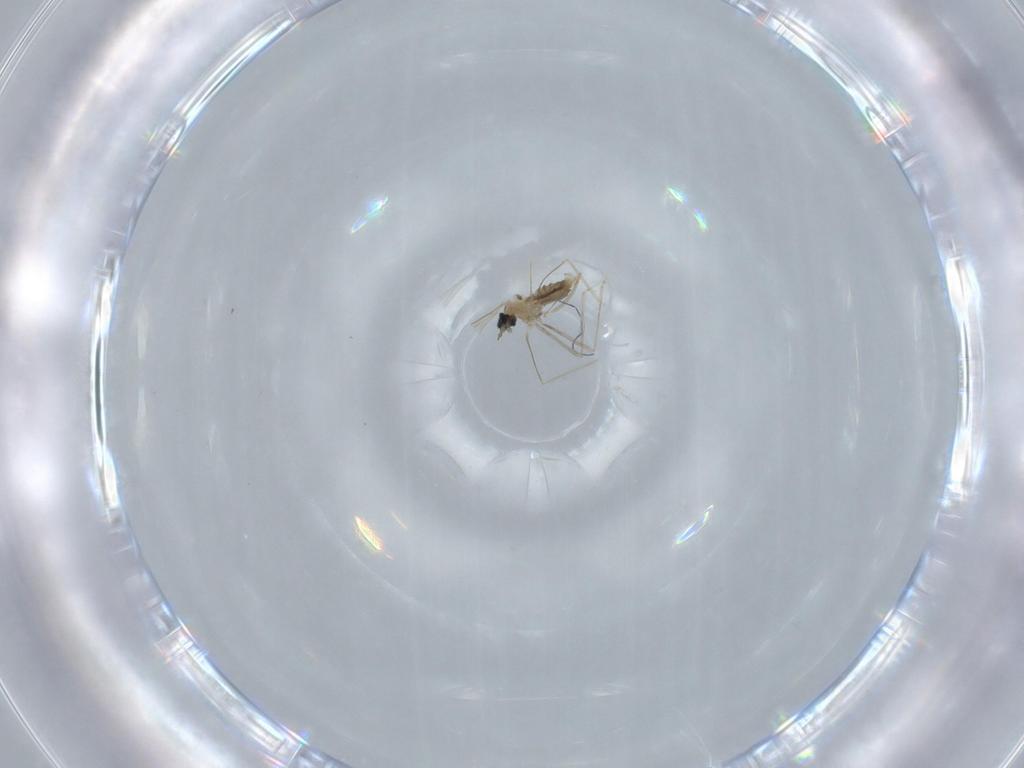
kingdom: Animalia
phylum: Arthropoda
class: Insecta
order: Diptera
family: Cecidomyiidae
